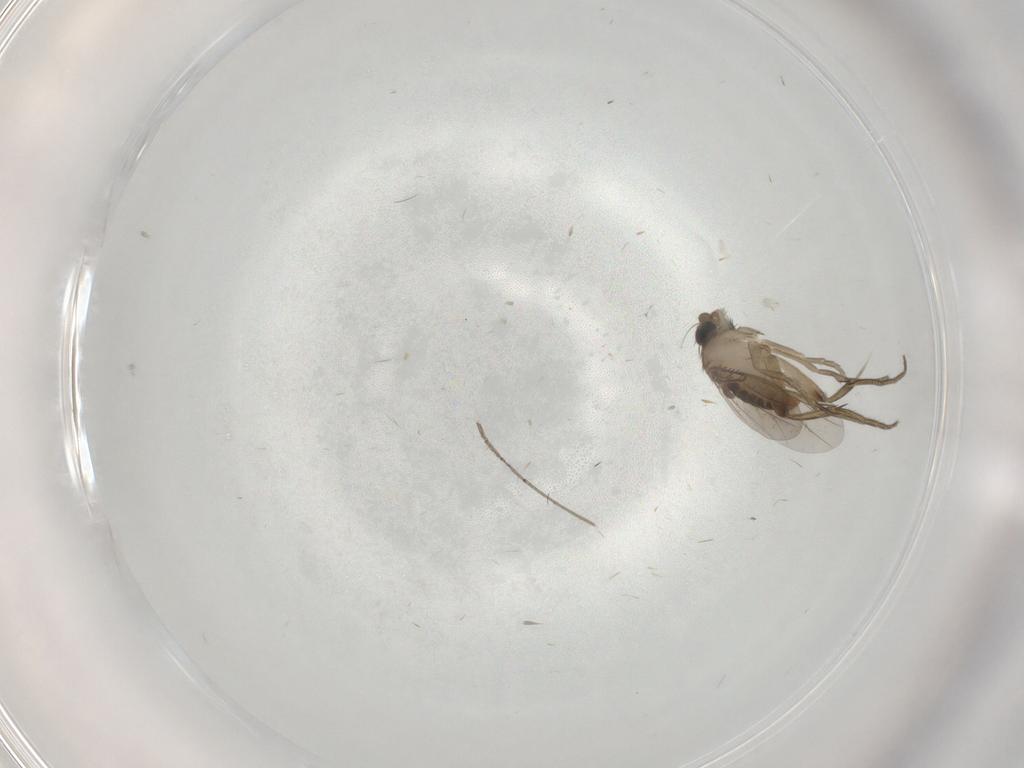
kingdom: Animalia
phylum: Arthropoda
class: Insecta
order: Diptera
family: Phoridae
